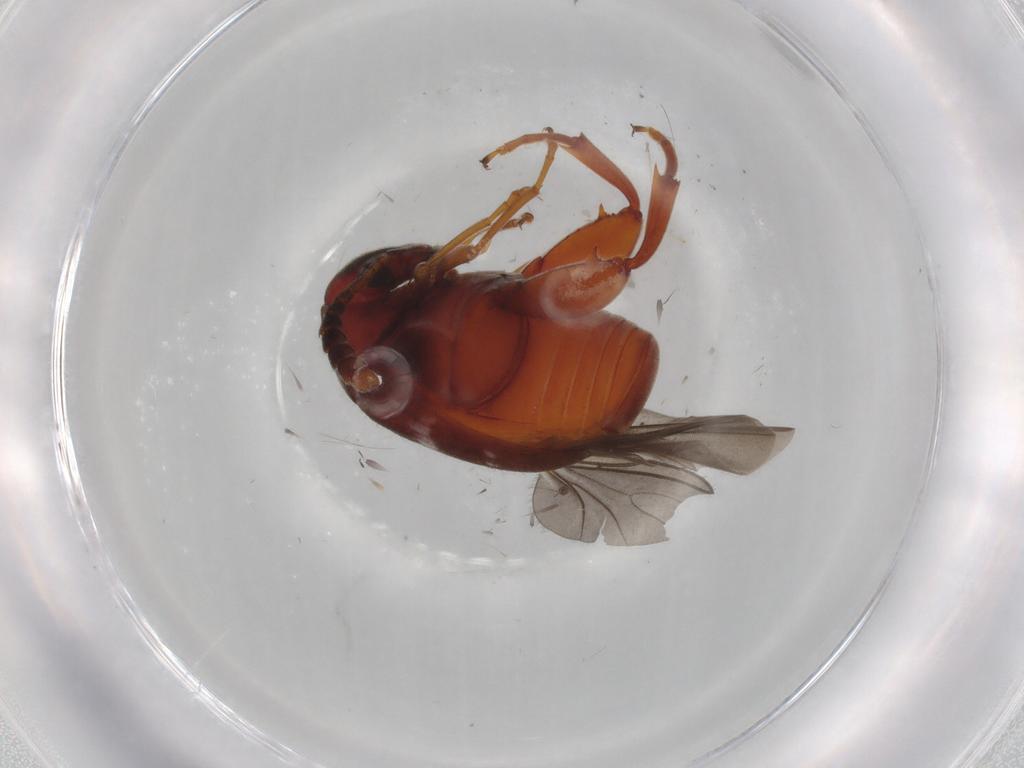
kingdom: Animalia
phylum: Arthropoda
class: Insecta
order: Coleoptera
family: Chrysomelidae
